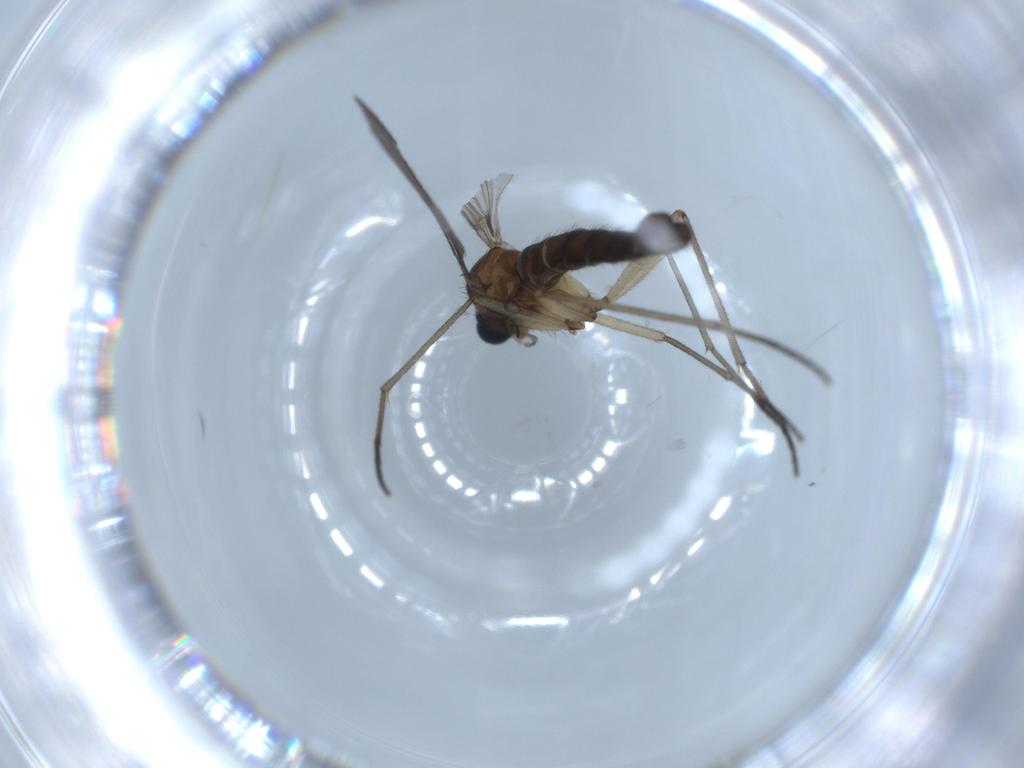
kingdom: Animalia
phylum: Arthropoda
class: Insecta
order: Diptera
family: Sciaridae
